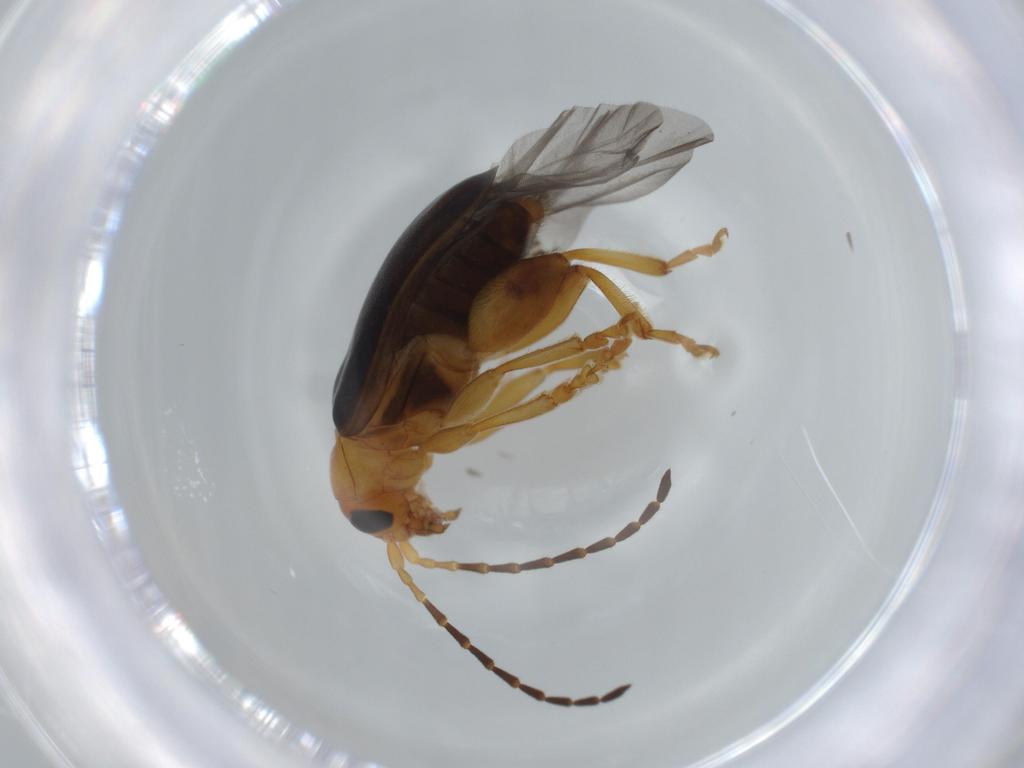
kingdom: Animalia
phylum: Arthropoda
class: Insecta
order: Coleoptera
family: Chrysomelidae
